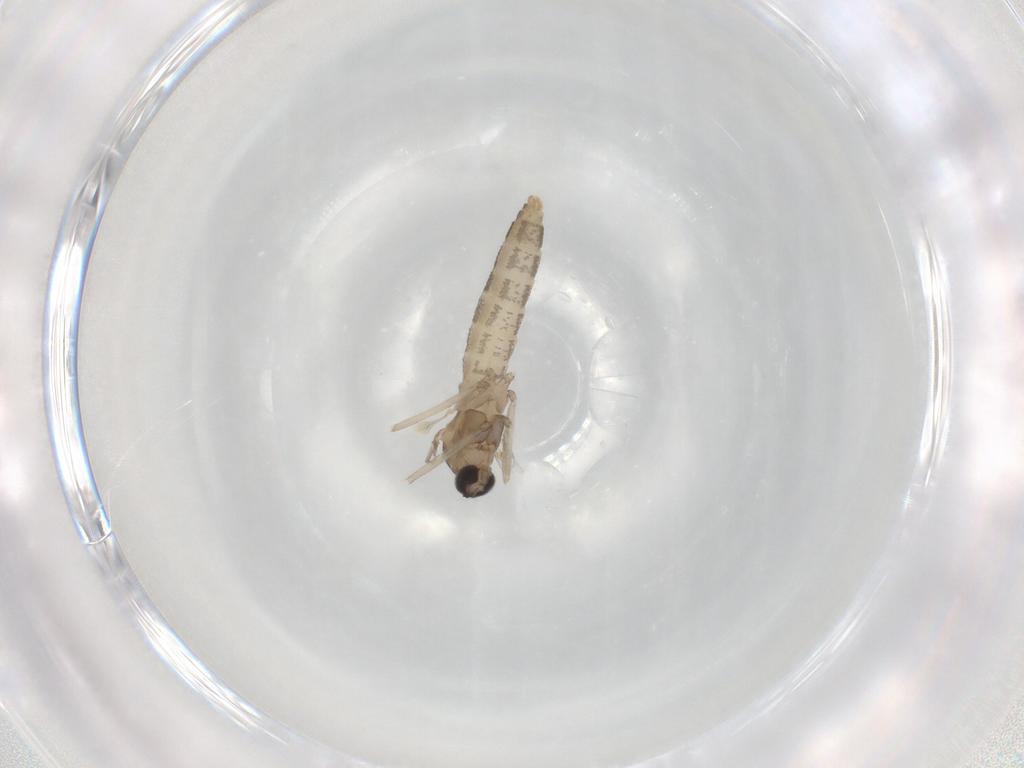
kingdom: Animalia
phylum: Arthropoda
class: Insecta
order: Diptera
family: Cecidomyiidae
